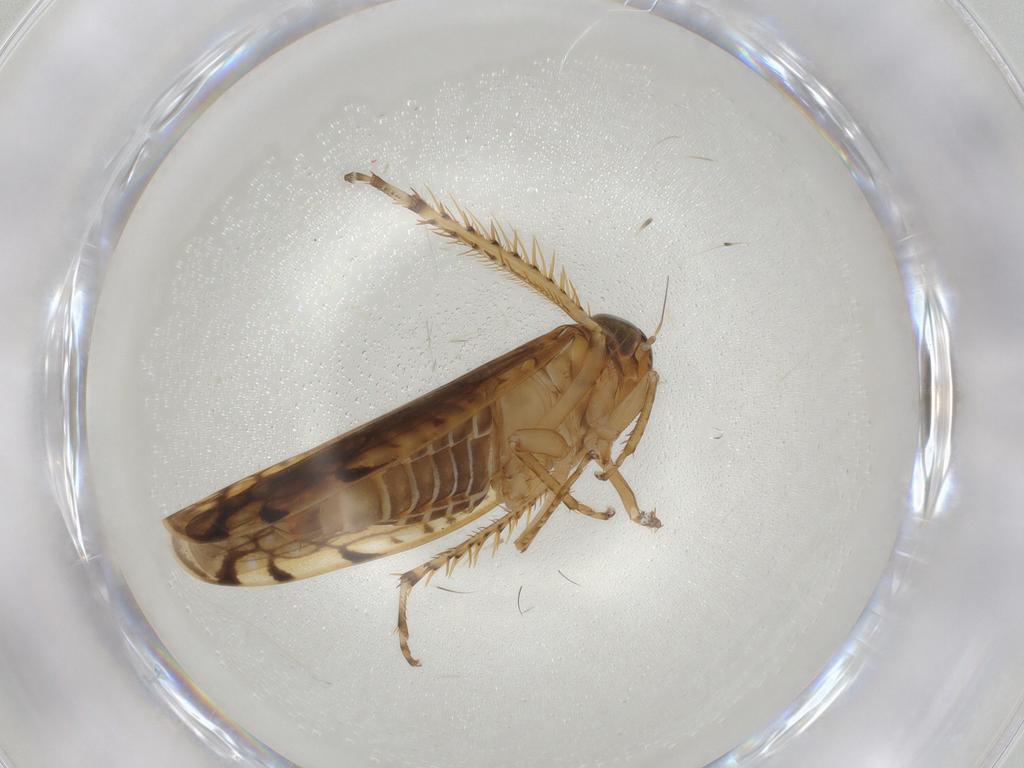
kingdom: Animalia
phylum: Arthropoda
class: Insecta
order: Hemiptera
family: Cicadellidae
